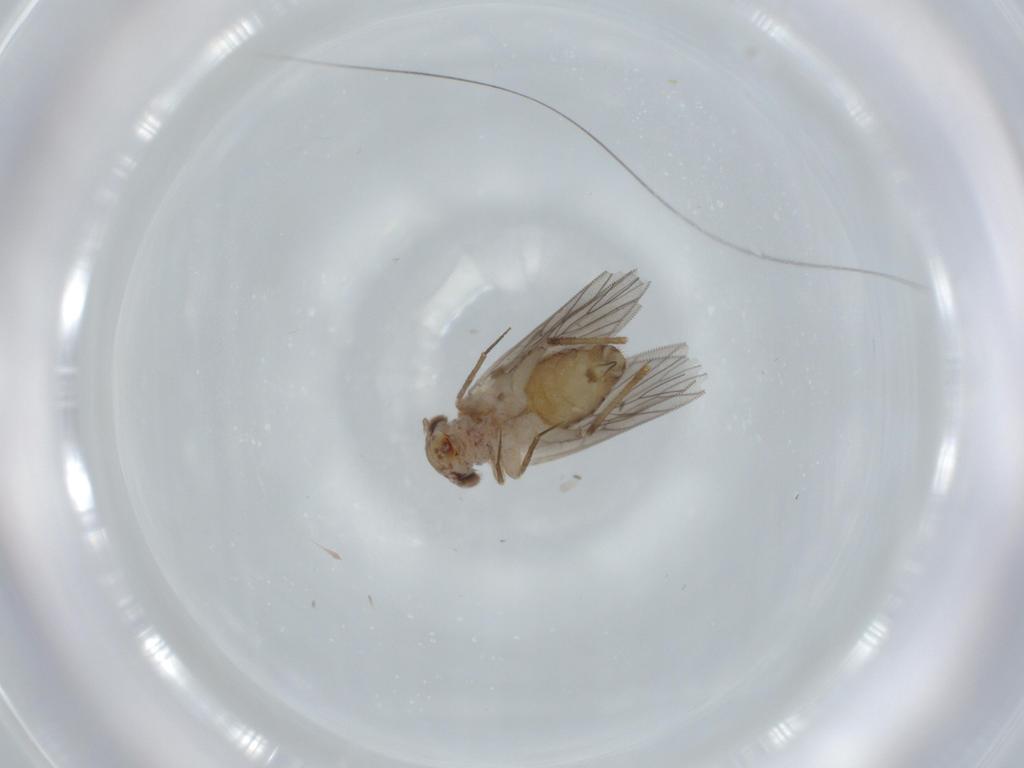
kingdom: Animalia
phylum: Arthropoda
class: Insecta
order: Psocodea
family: Lepidopsocidae
